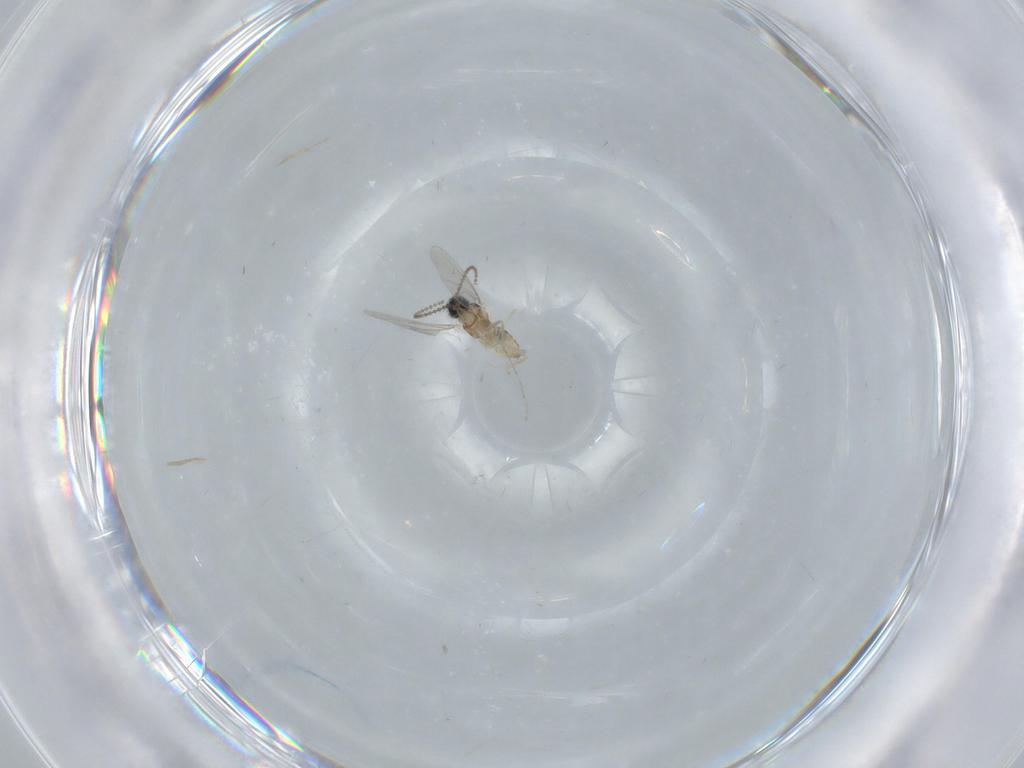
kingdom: Animalia
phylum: Arthropoda
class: Insecta
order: Diptera
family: Cecidomyiidae
